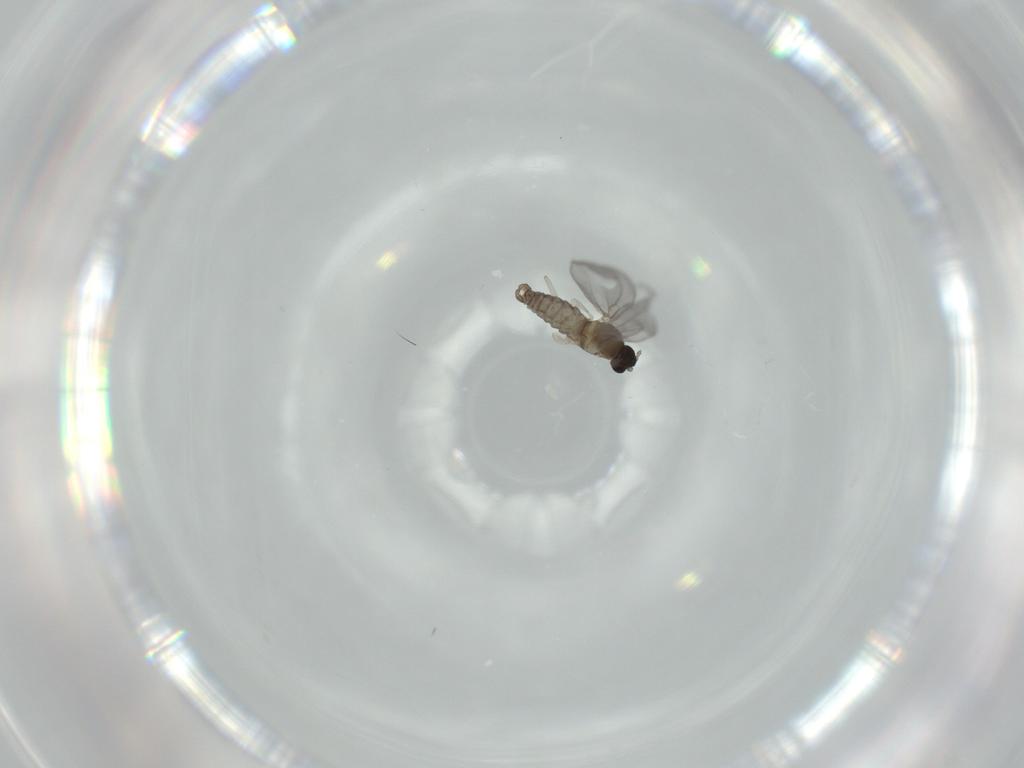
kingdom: Animalia
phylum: Arthropoda
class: Insecta
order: Diptera
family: Cecidomyiidae
